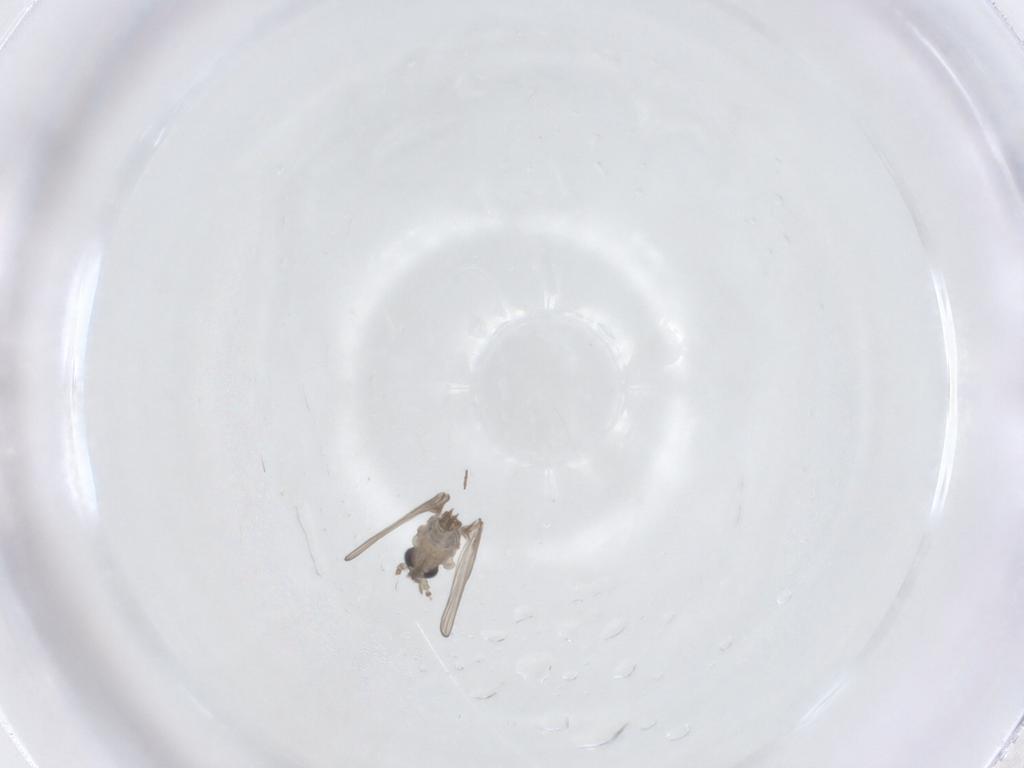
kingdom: Animalia
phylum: Arthropoda
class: Insecta
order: Diptera
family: Psychodidae
